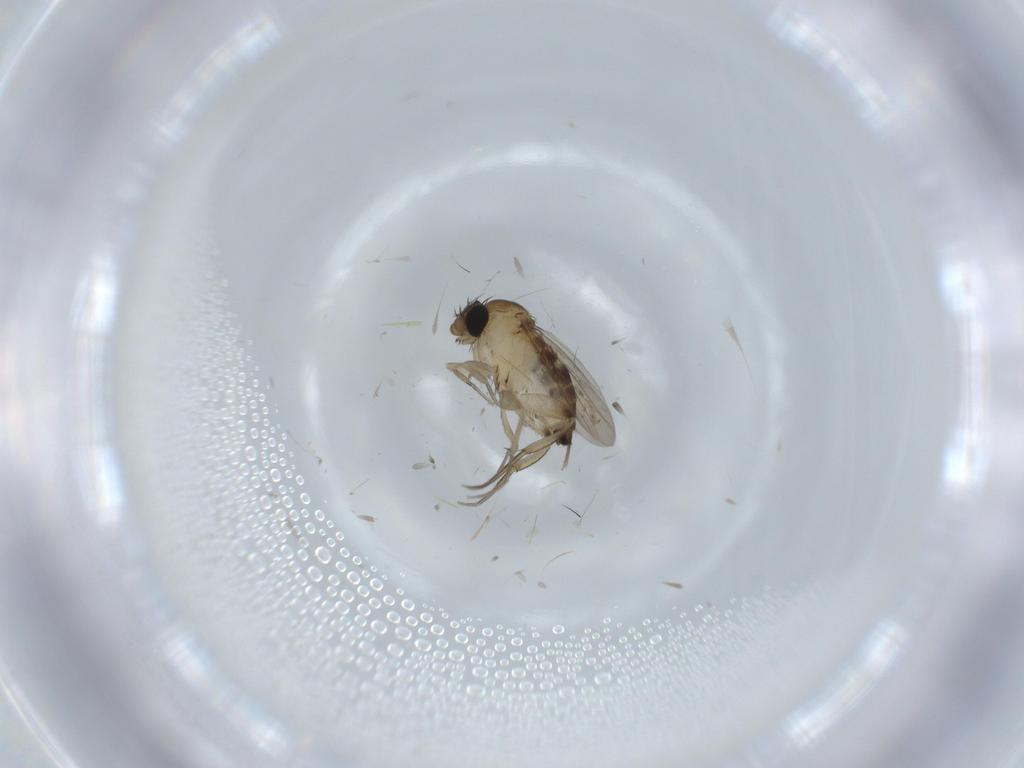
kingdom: Animalia
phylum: Arthropoda
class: Insecta
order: Diptera
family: Phoridae
